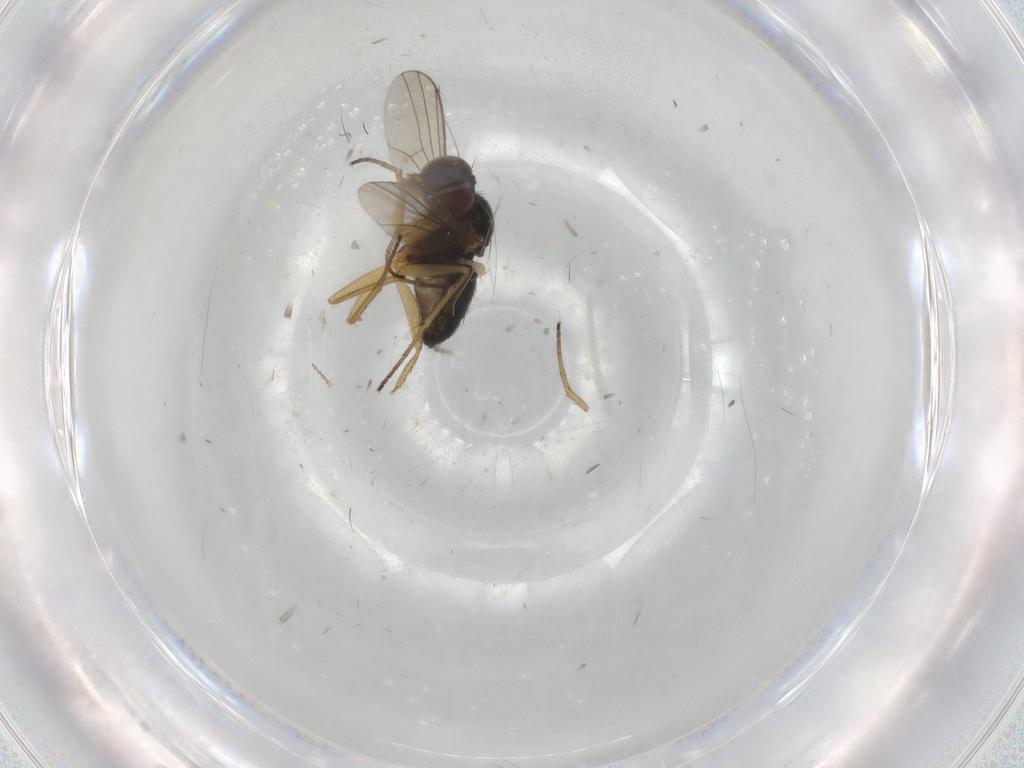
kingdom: Animalia
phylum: Arthropoda
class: Insecta
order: Diptera
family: Dolichopodidae
